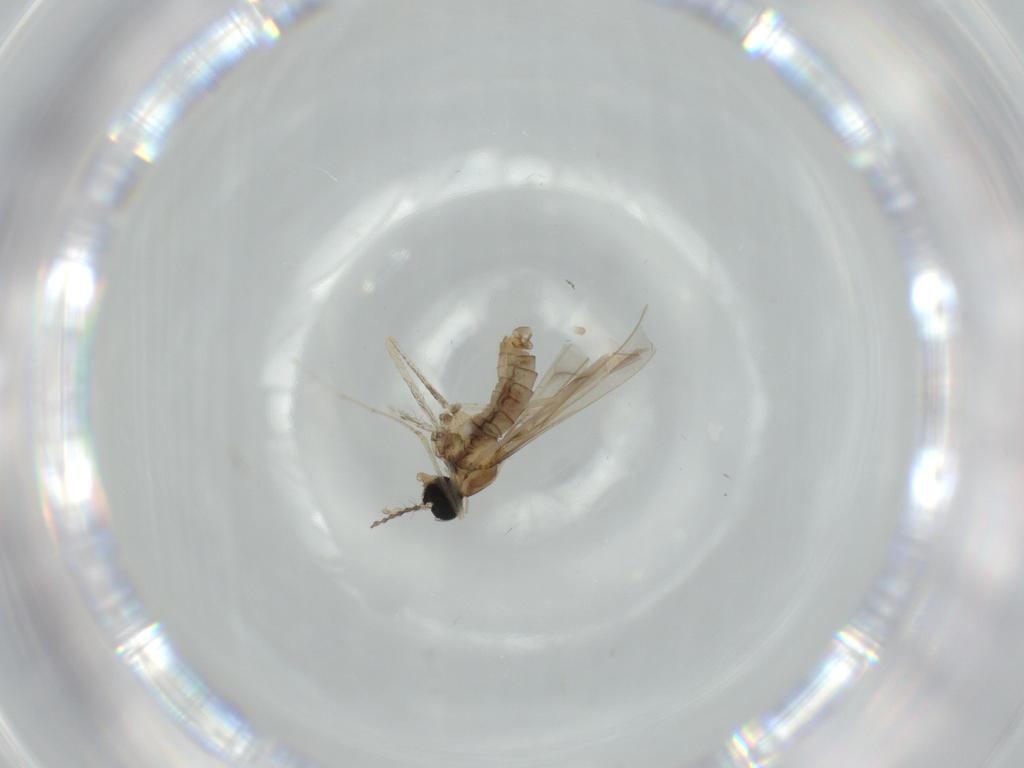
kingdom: Animalia
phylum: Arthropoda
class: Insecta
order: Diptera
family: Cecidomyiidae
